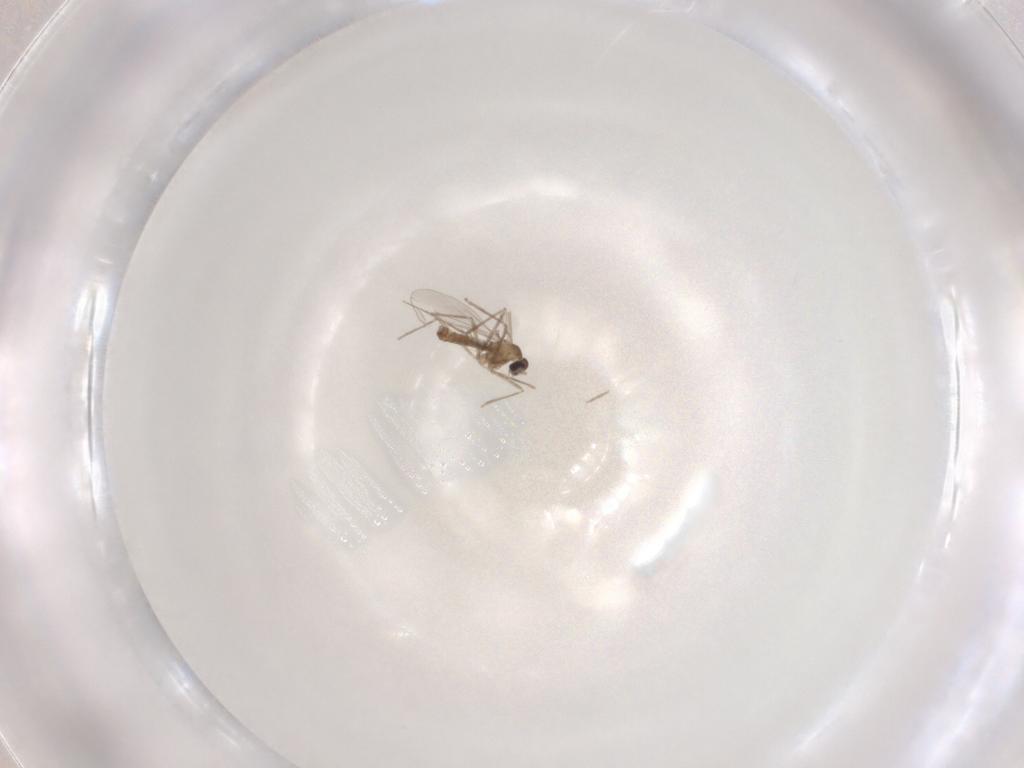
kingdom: Animalia
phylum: Arthropoda
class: Insecta
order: Diptera
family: Cecidomyiidae
